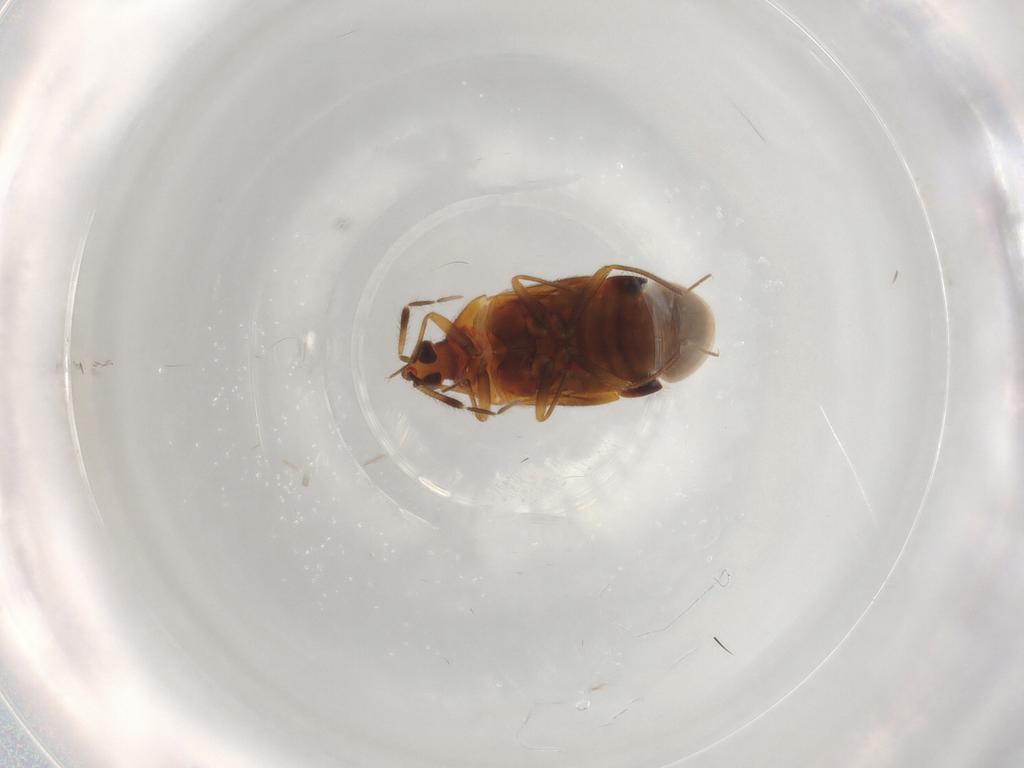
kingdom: Animalia
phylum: Arthropoda
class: Insecta
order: Hemiptera
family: Anthocoridae
